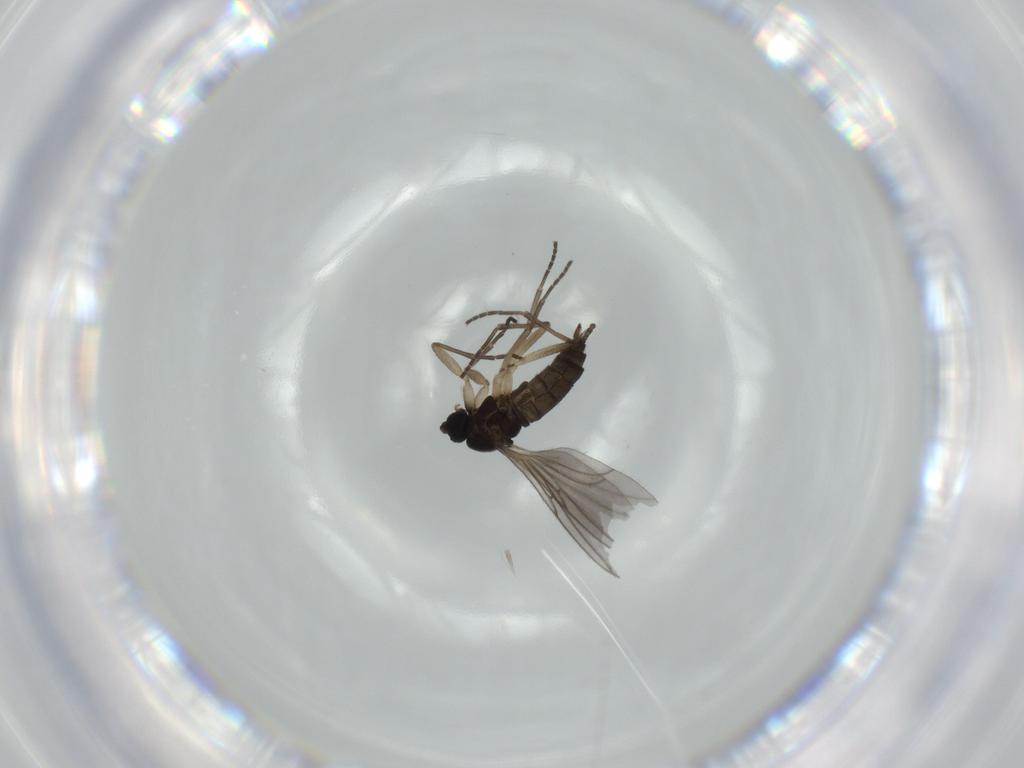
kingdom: Animalia
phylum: Arthropoda
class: Insecta
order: Diptera
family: Sciaridae
